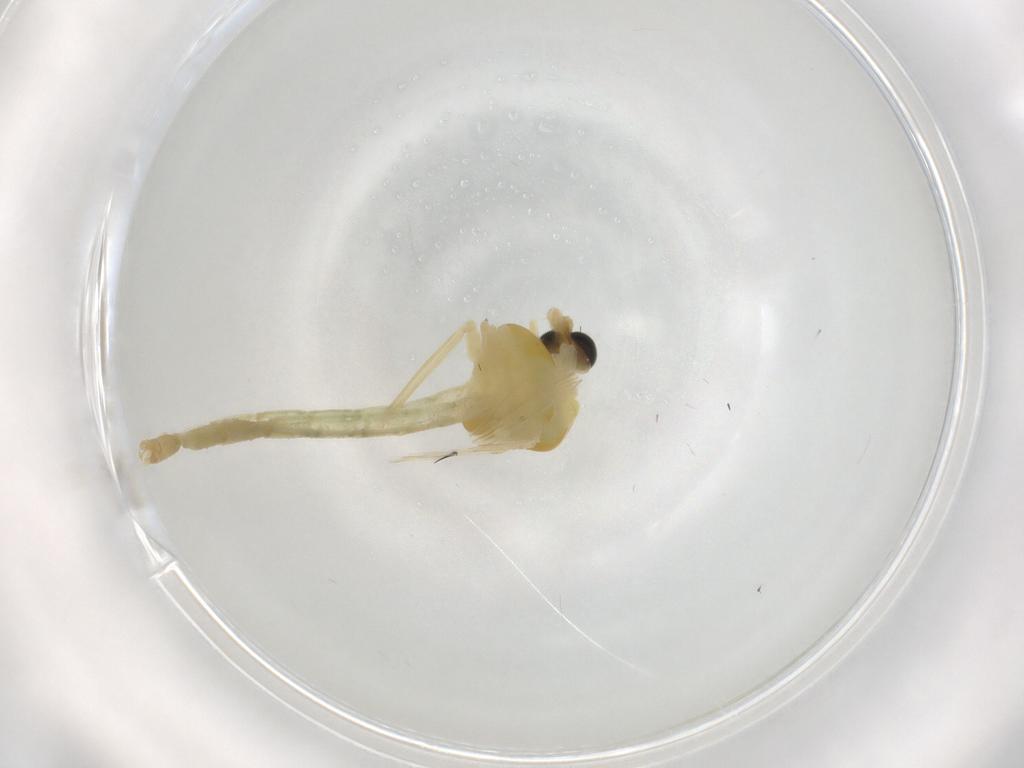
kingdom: Animalia
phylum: Arthropoda
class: Insecta
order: Diptera
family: Chironomidae
